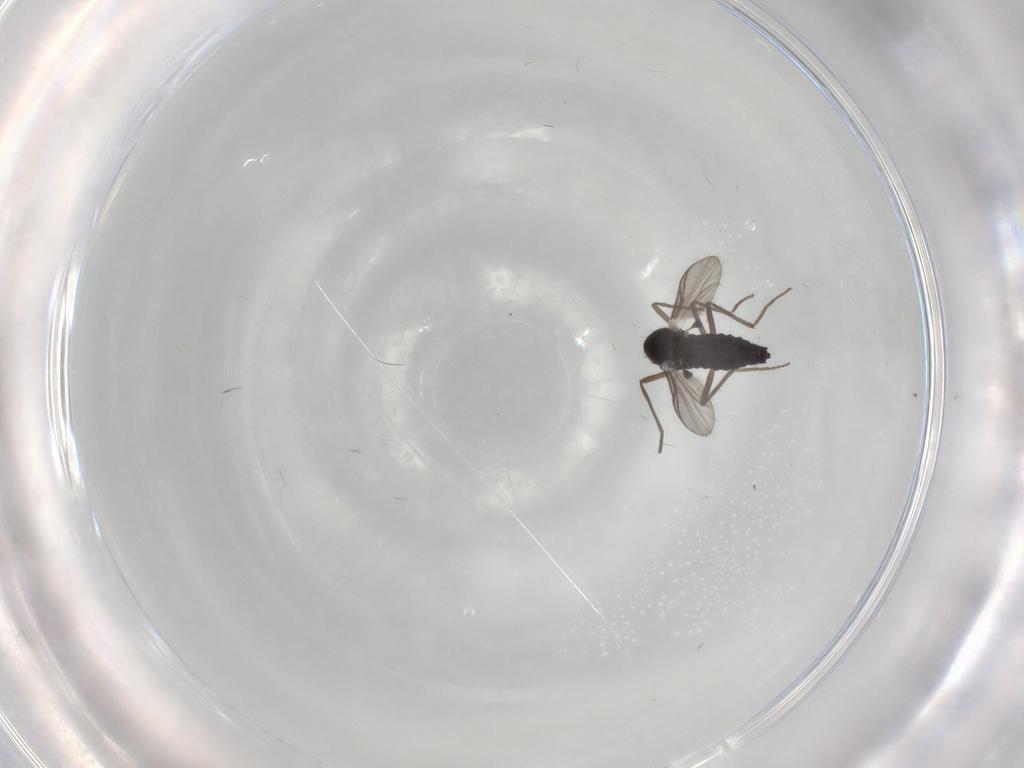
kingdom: Animalia
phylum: Arthropoda
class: Insecta
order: Diptera
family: Chironomidae
